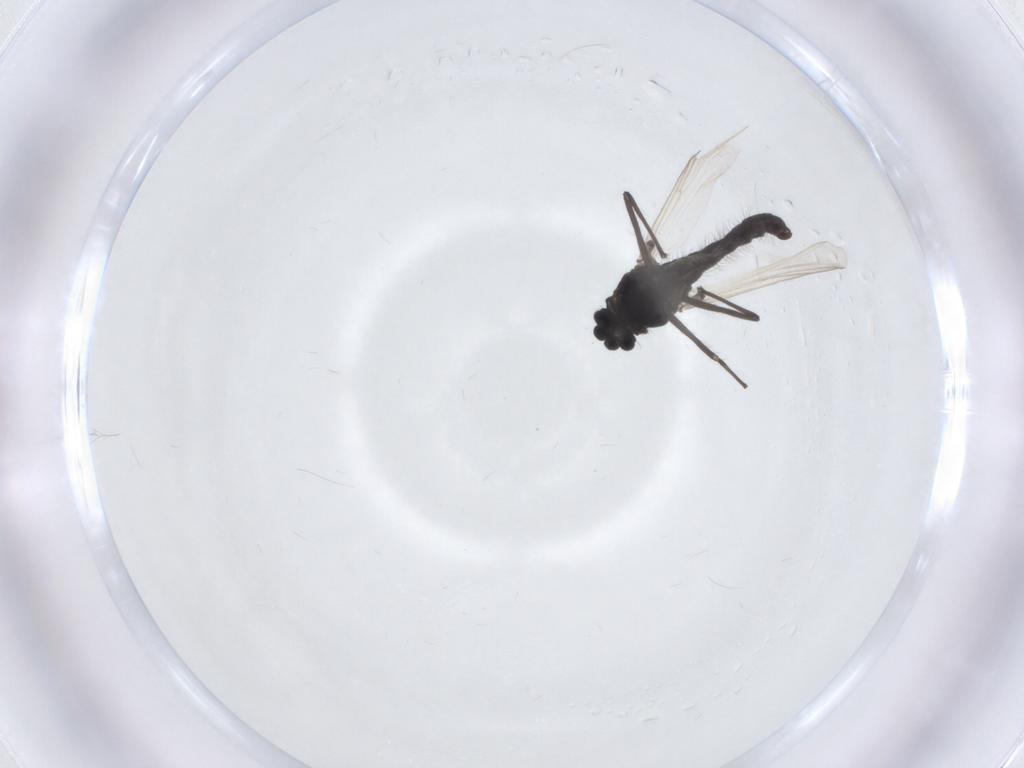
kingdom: Animalia
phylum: Arthropoda
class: Insecta
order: Diptera
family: Chironomidae
